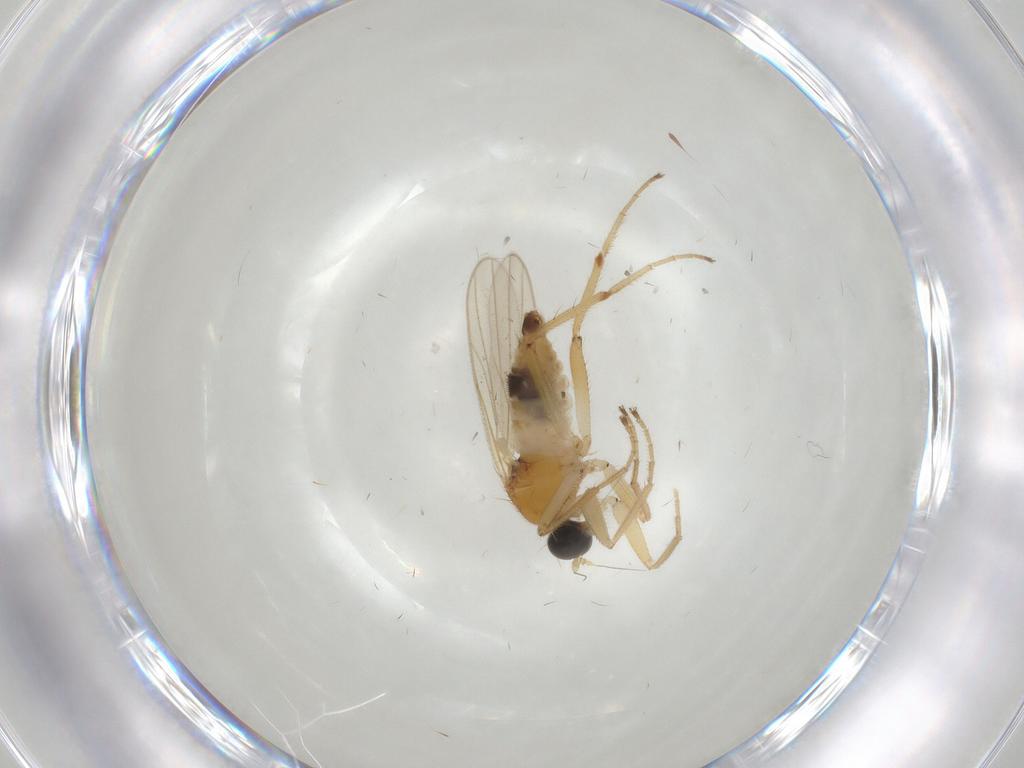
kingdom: Animalia
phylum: Arthropoda
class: Insecta
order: Diptera
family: Hybotidae
